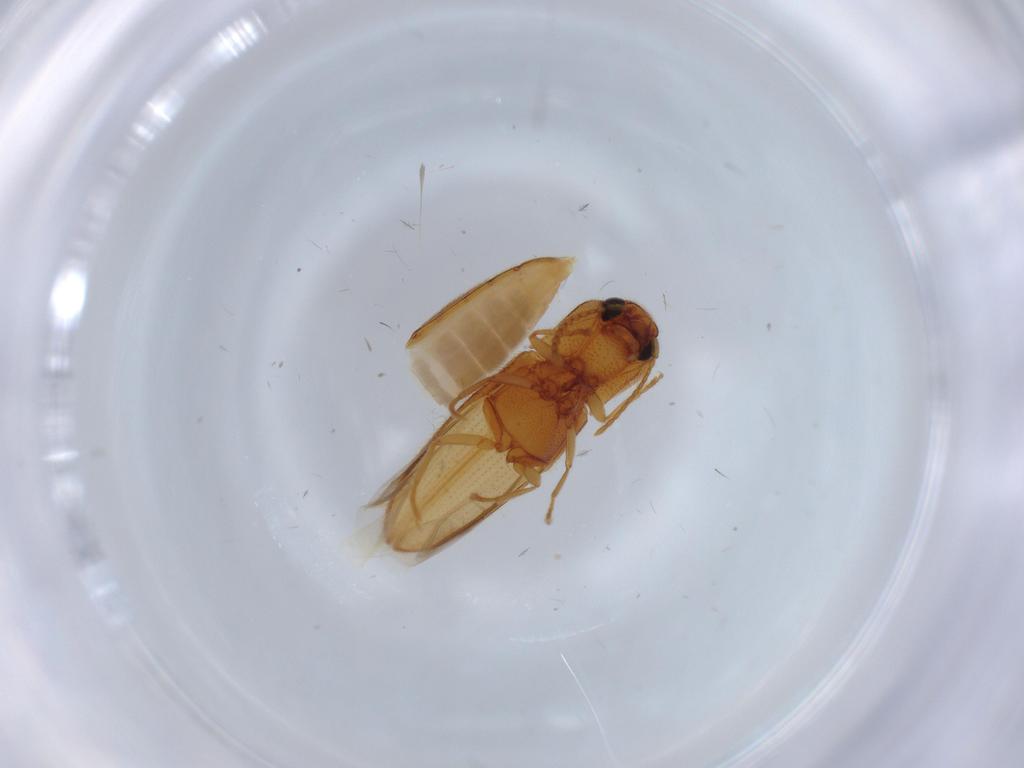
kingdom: Animalia
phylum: Arthropoda
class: Insecta
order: Coleoptera
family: Elateridae
